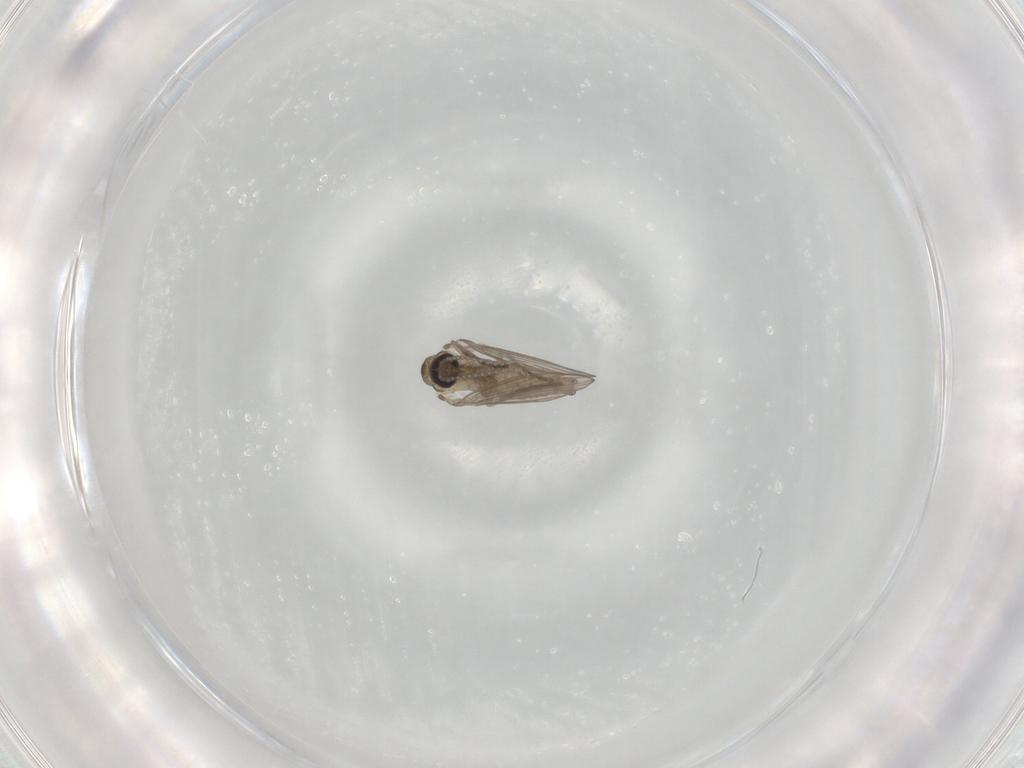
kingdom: Animalia
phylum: Arthropoda
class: Insecta
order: Diptera
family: Psychodidae
